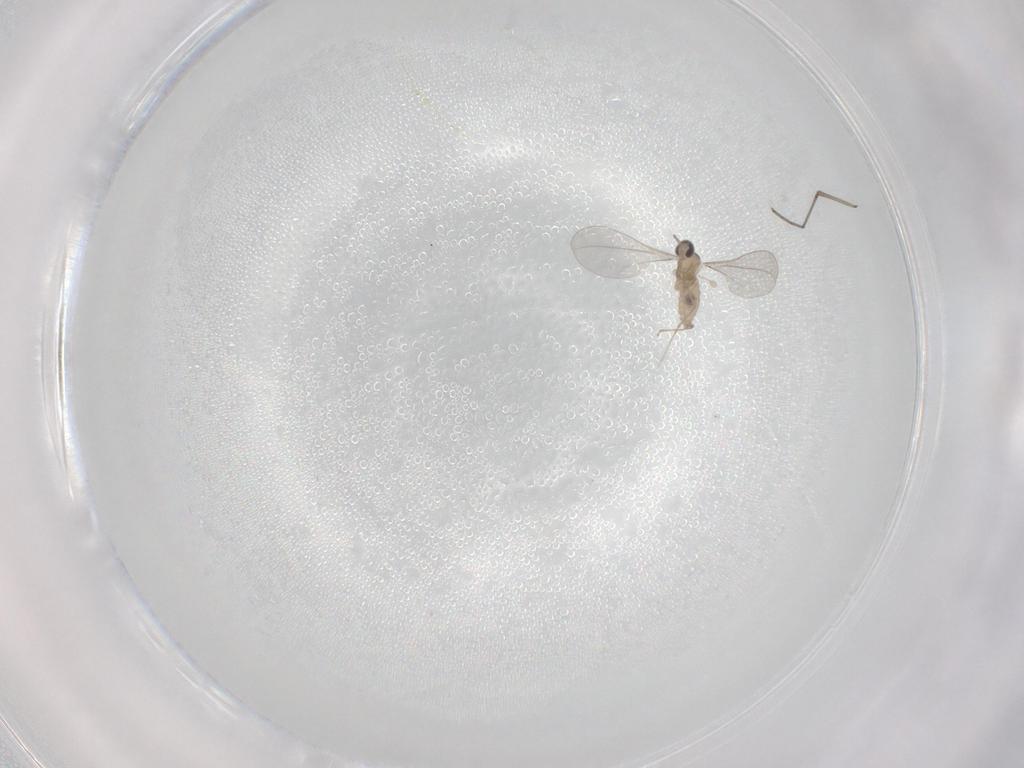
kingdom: Animalia
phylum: Arthropoda
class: Insecta
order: Diptera
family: Cecidomyiidae
